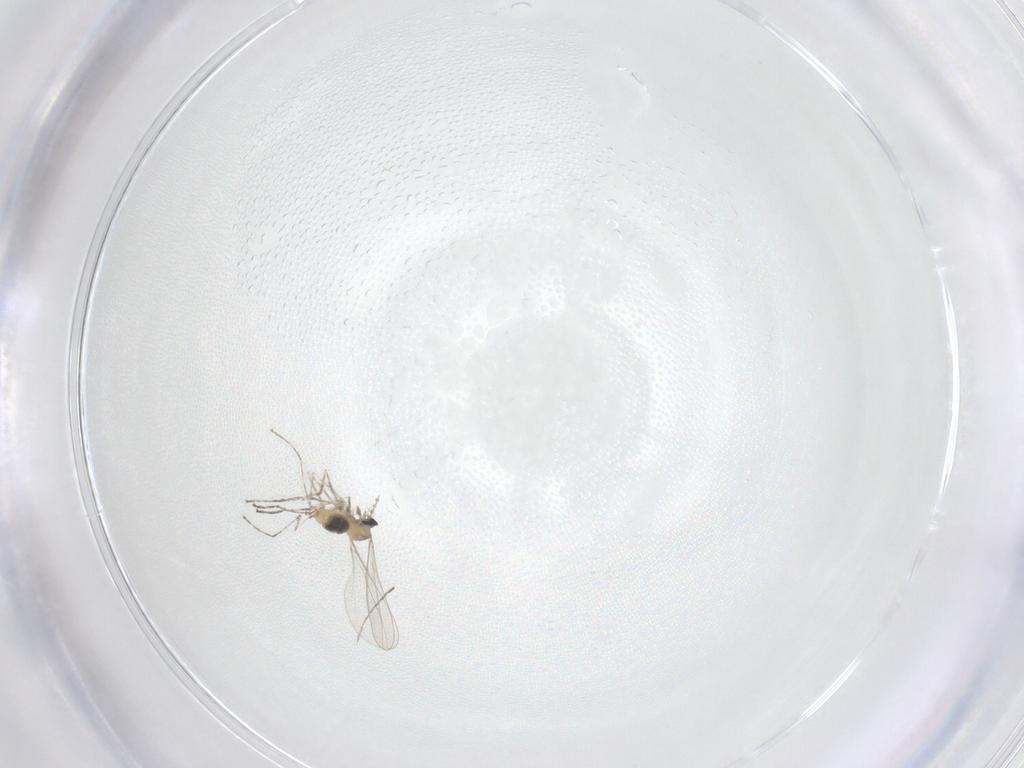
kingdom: Animalia
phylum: Arthropoda
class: Insecta
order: Diptera
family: Cecidomyiidae
